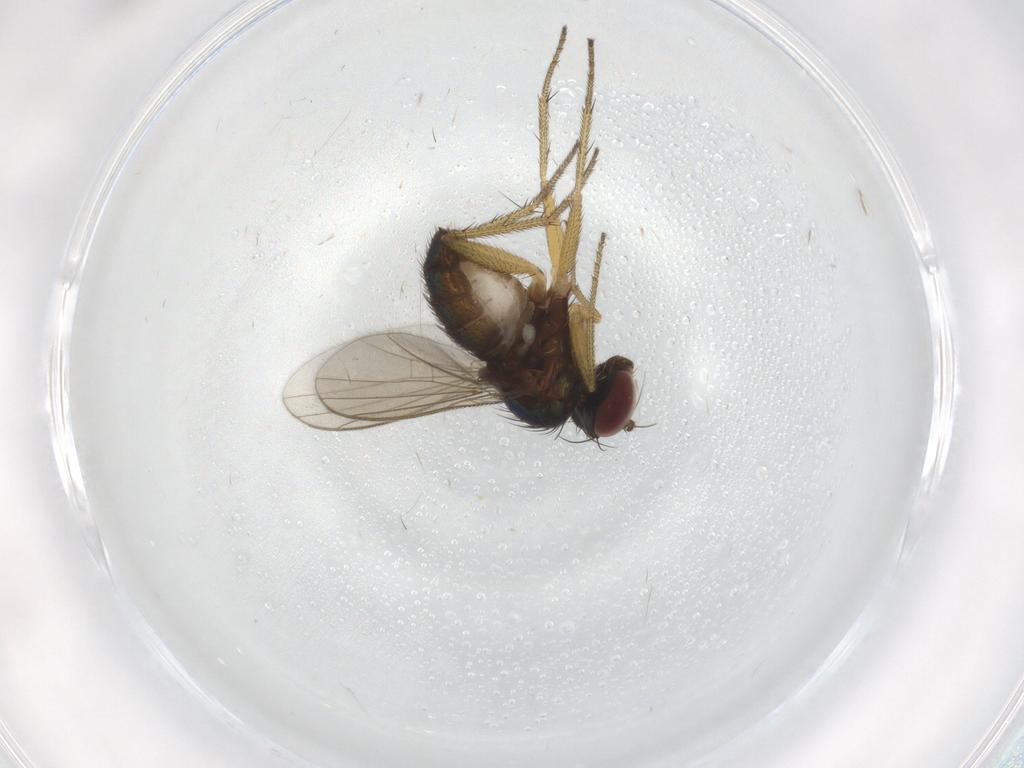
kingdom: Animalia
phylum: Arthropoda
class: Insecta
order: Diptera
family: Chironomidae
